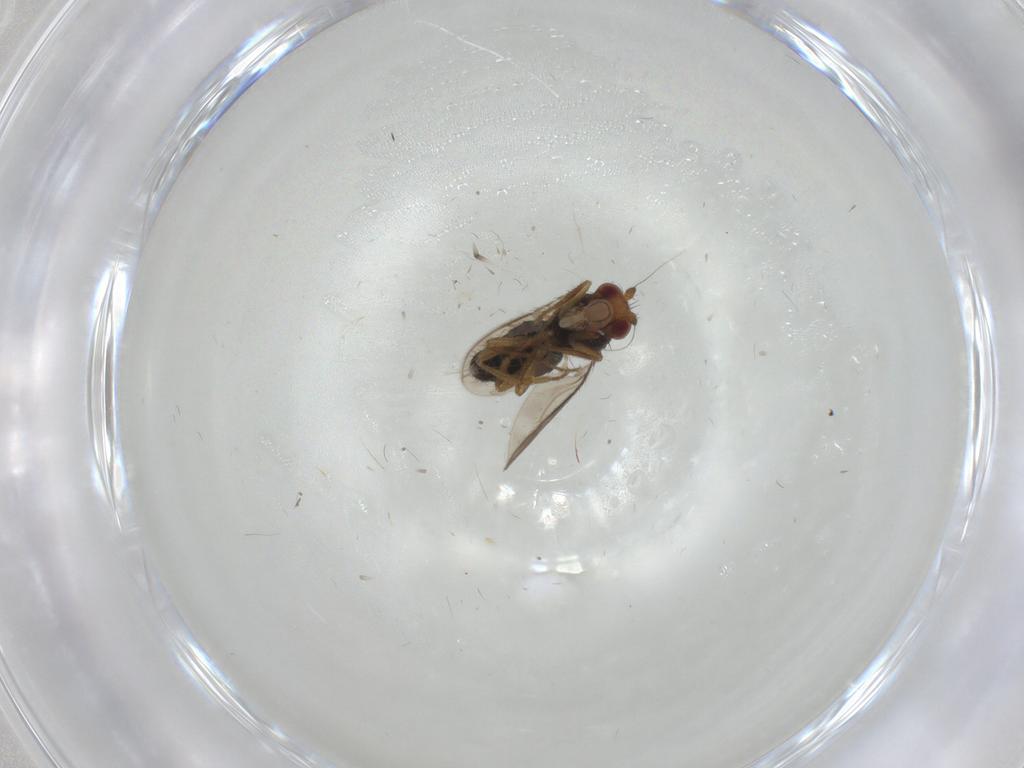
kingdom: Animalia
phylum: Arthropoda
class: Insecta
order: Diptera
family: Sphaeroceridae
